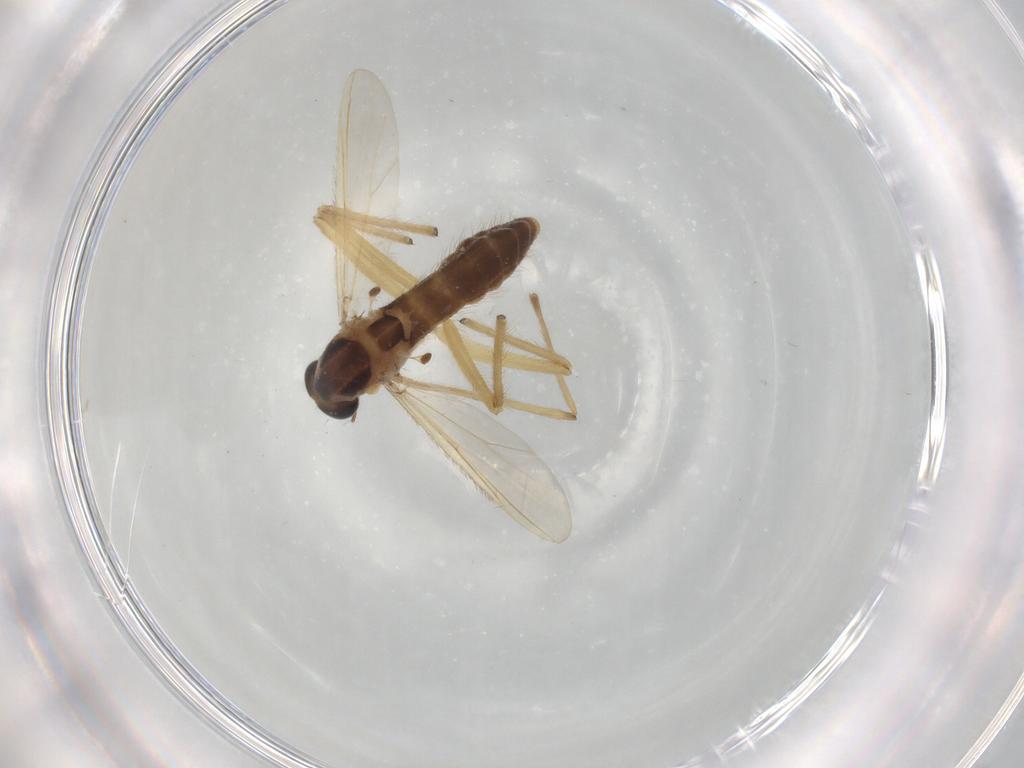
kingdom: Animalia
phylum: Arthropoda
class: Insecta
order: Diptera
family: Chironomidae
